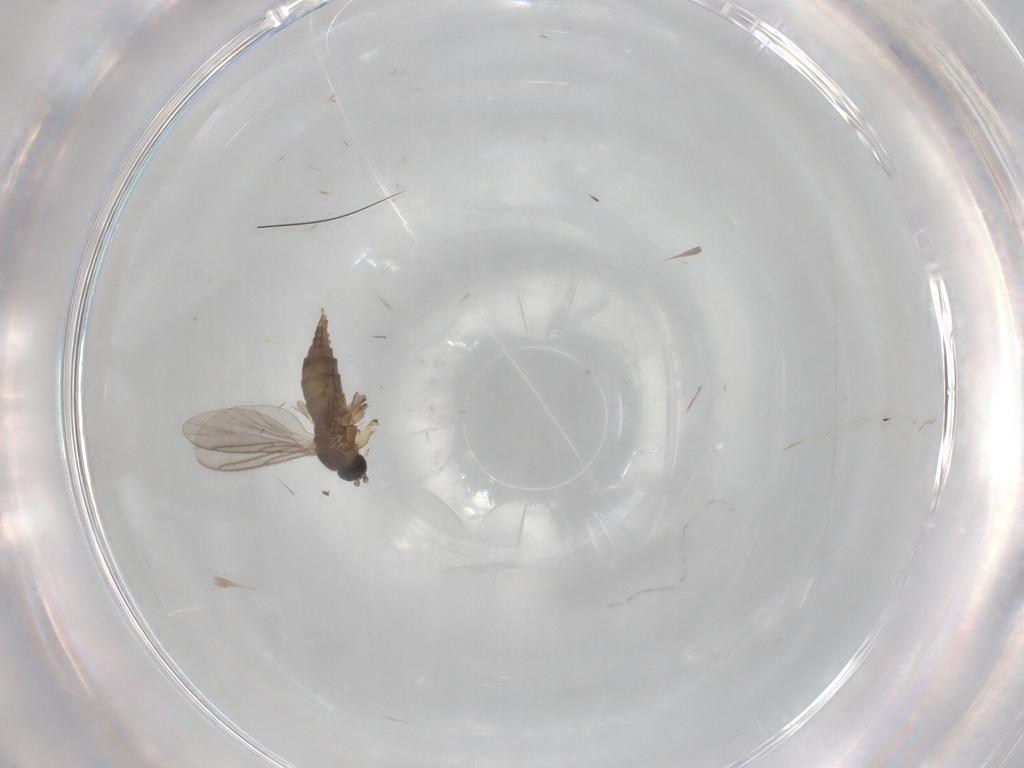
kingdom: Animalia
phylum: Arthropoda
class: Insecta
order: Diptera
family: Sciaridae
